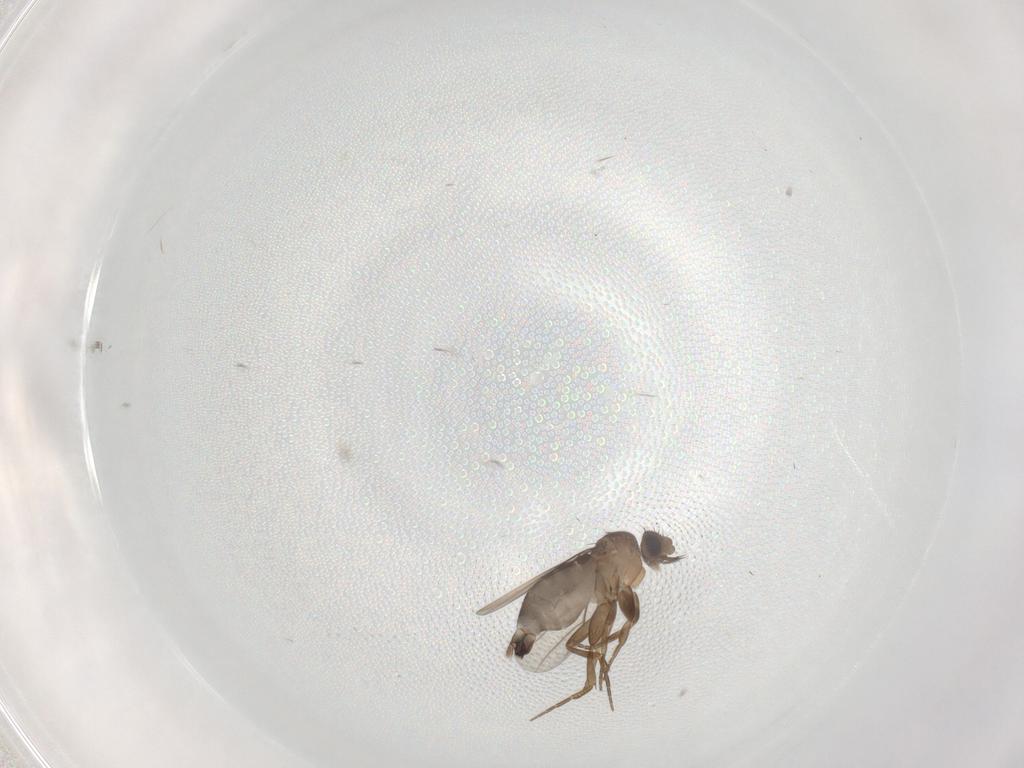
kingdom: Animalia
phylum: Arthropoda
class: Insecta
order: Diptera
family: Phoridae
